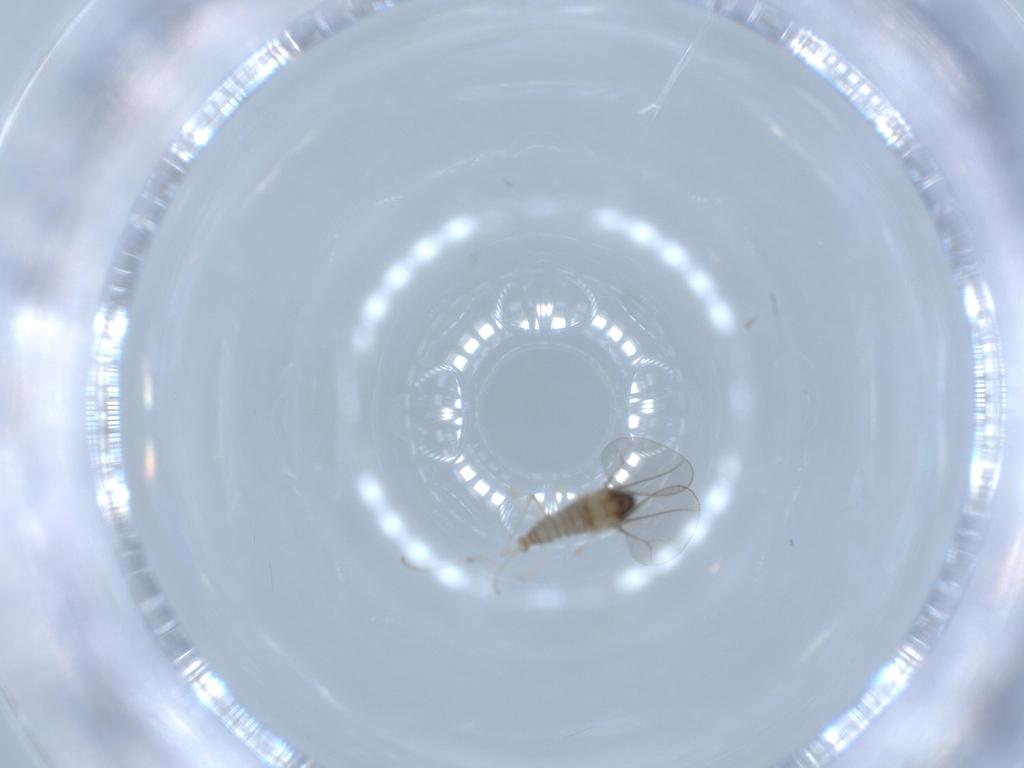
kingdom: Animalia
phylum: Arthropoda
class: Insecta
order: Diptera
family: Cecidomyiidae
